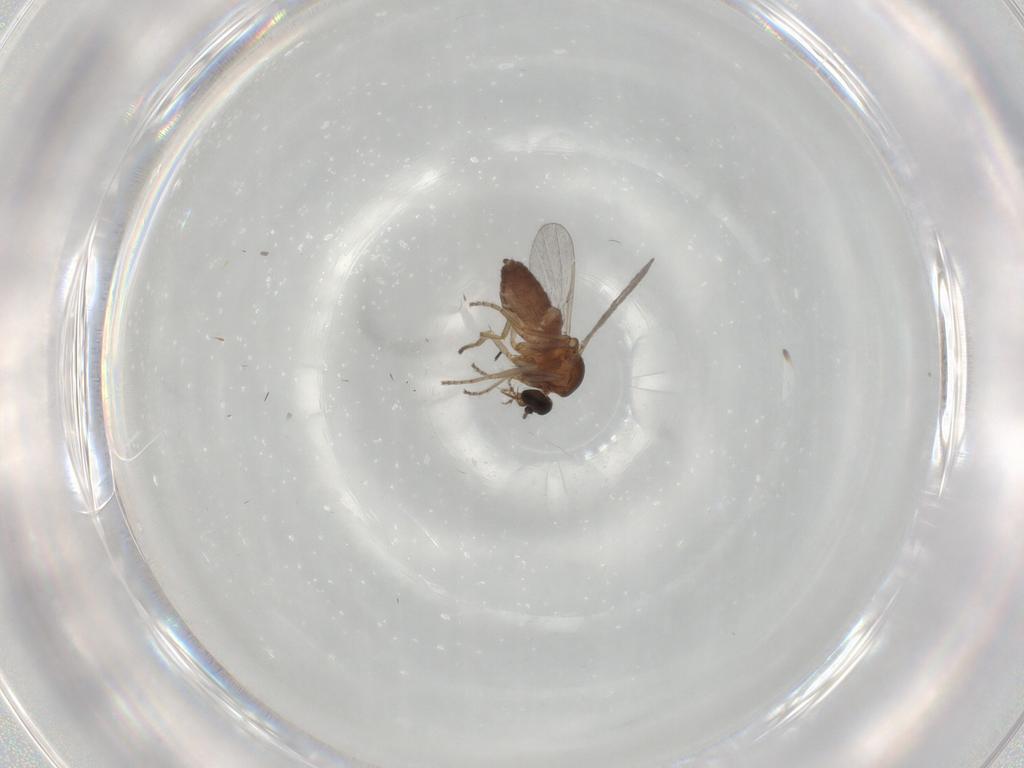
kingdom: Animalia
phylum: Arthropoda
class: Insecta
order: Diptera
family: Ceratopogonidae
